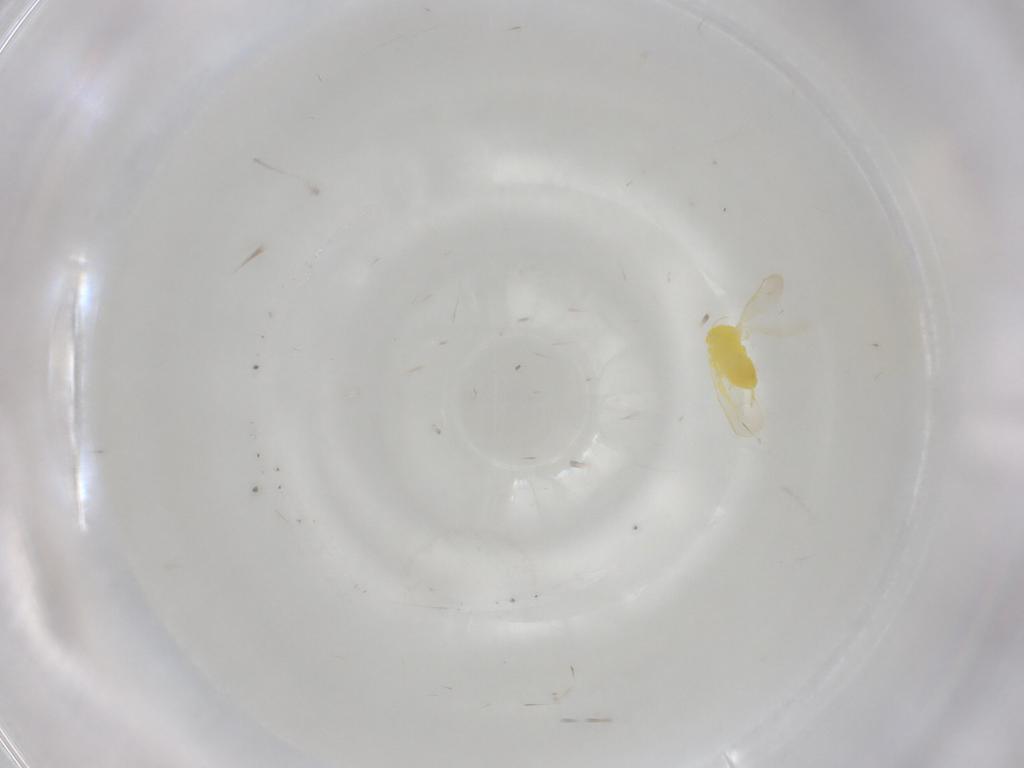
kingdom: Animalia
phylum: Arthropoda
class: Insecta
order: Hemiptera
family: Aleyrodidae
